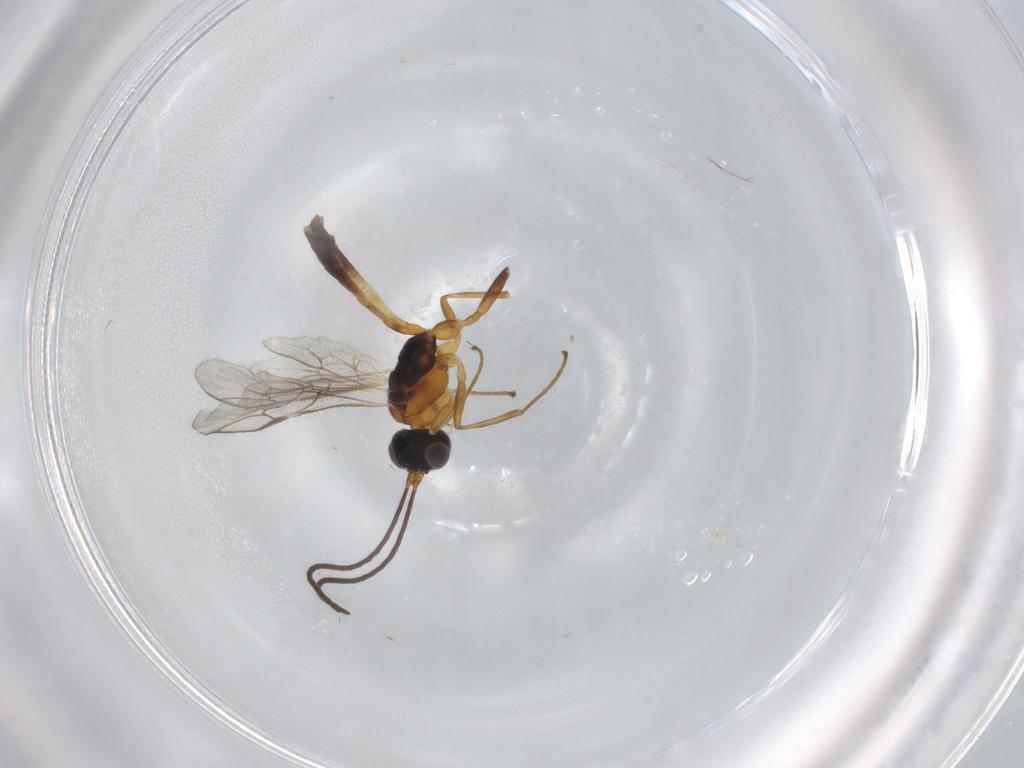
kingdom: Animalia
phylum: Arthropoda
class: Insecta
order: Hymenoptera
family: Ichneumonidae
